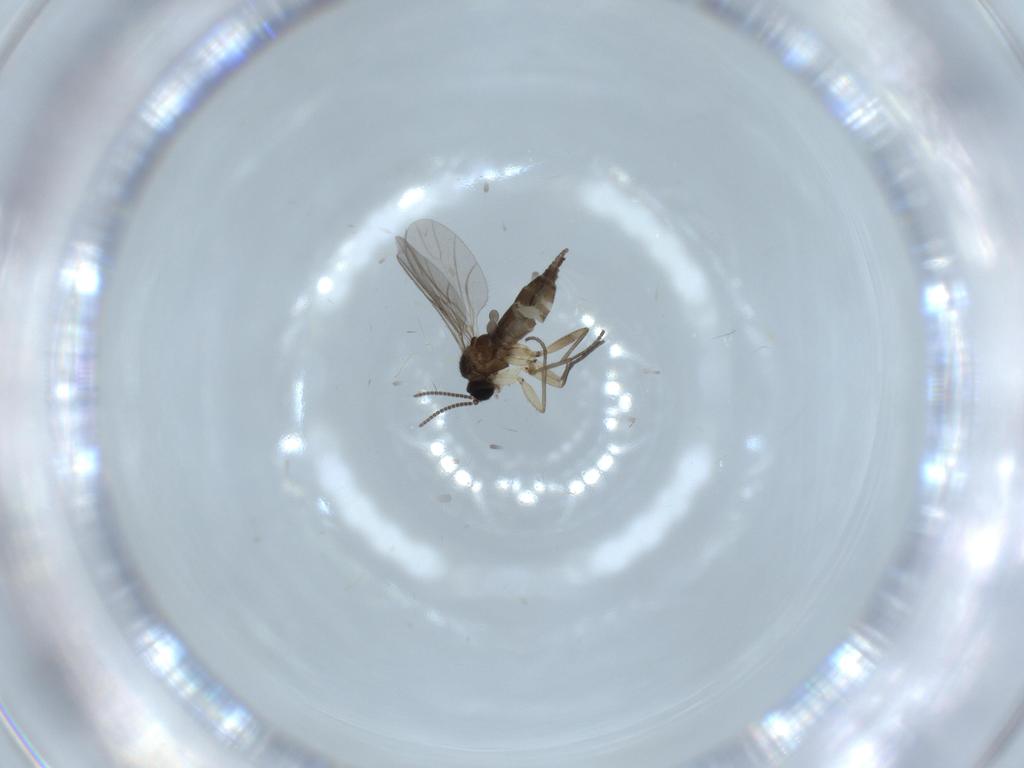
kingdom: Animalia
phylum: Arthropoda
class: Insecta
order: Diptera
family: Sciaridae
